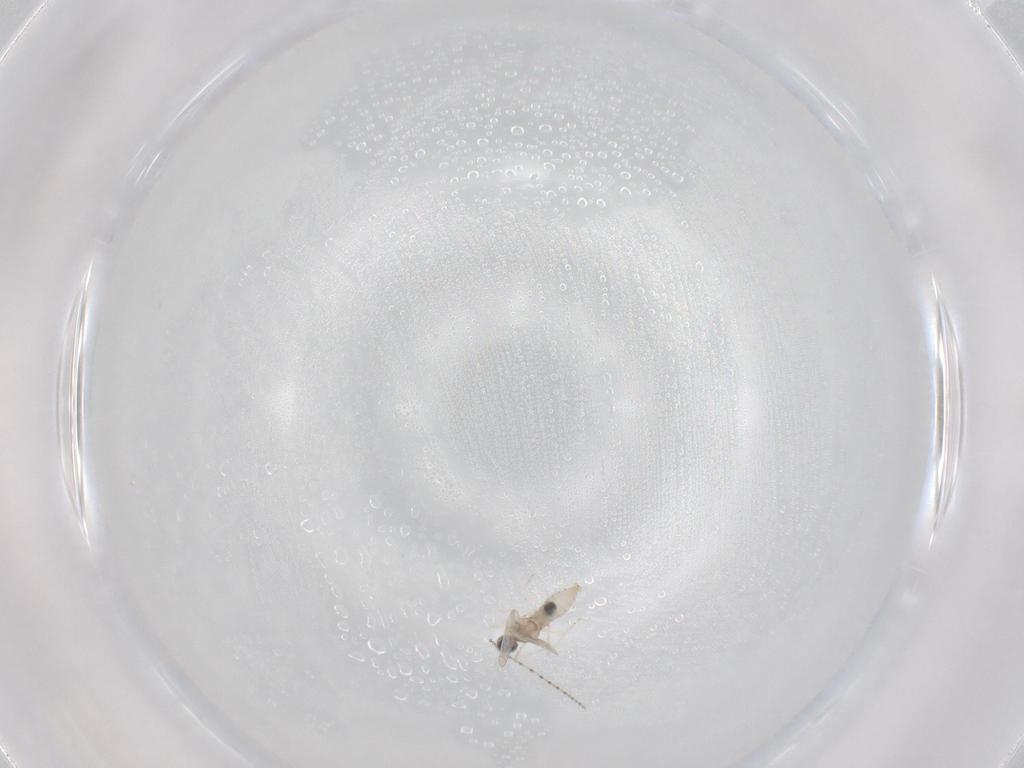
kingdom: Animalia
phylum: Arthropoda
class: Insecta
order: Diptera
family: Cecidomyiidae
